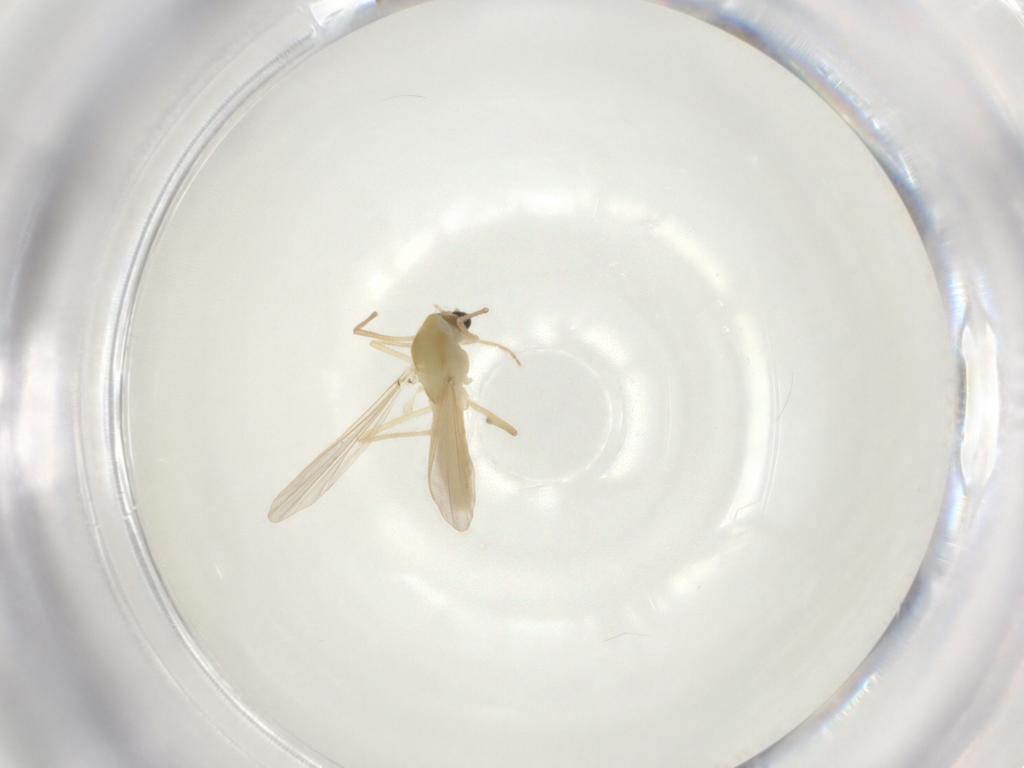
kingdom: Animalia
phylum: Arthropoda
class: Insecta
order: Diptera
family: Chironomidae
